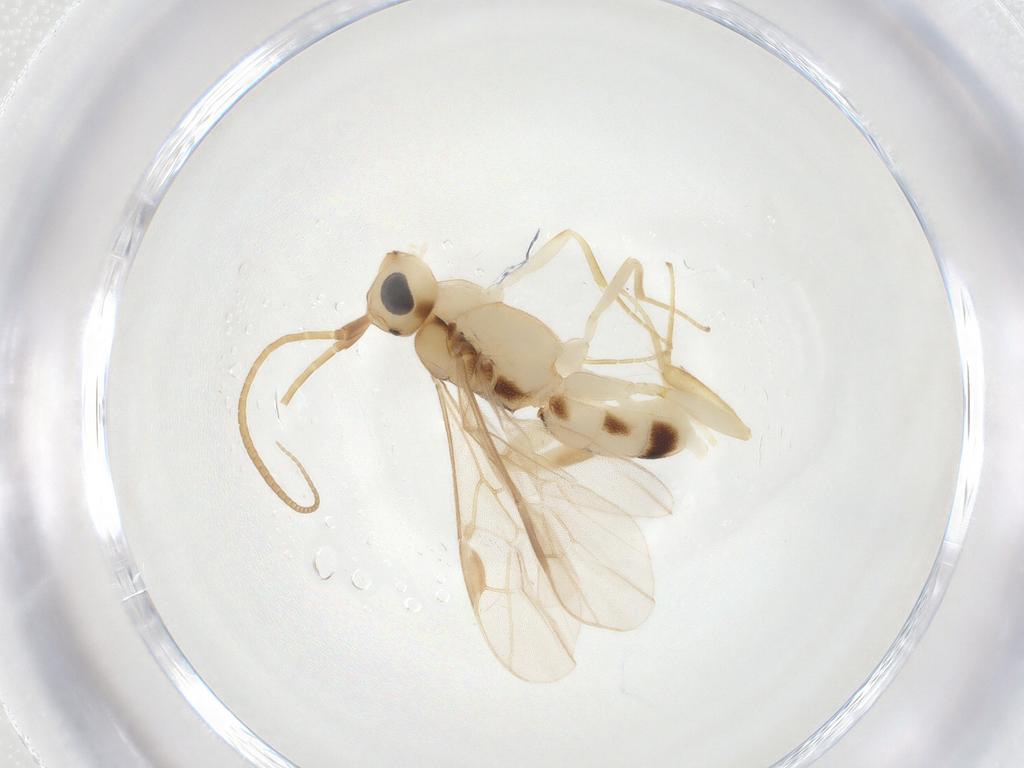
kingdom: Animalia
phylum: Arthropoda
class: Insecta
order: Hymenoptera
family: Braconidae
